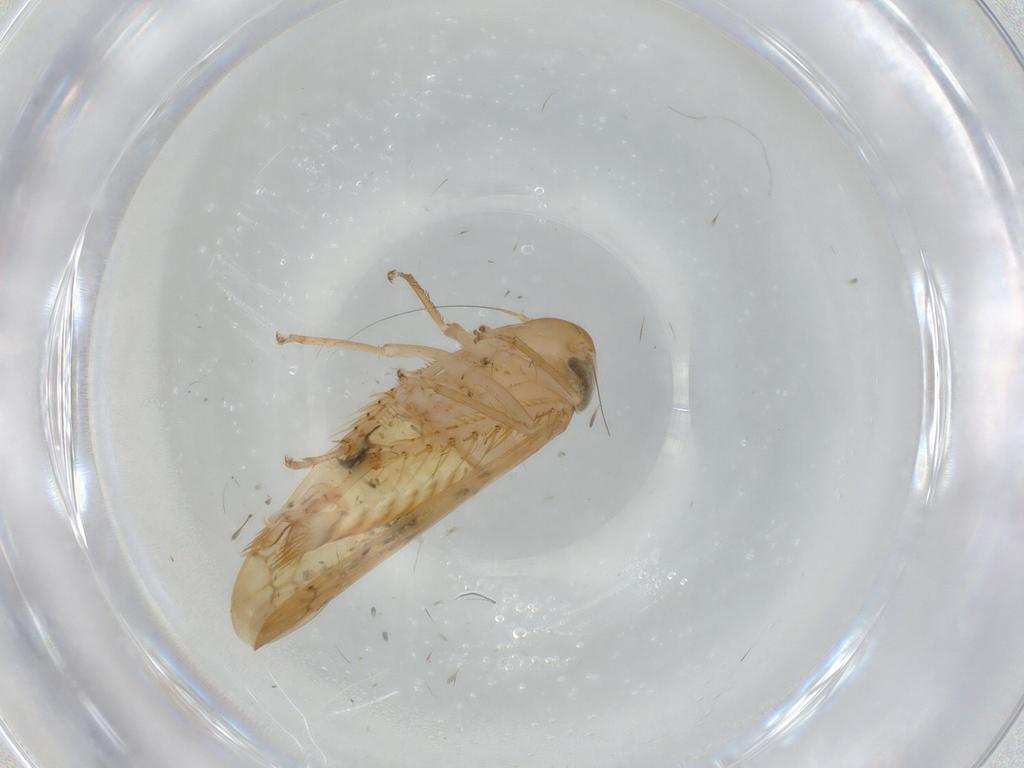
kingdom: Animalia
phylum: Arthropoda
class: Insecta
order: Hemiptera
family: Cicadellidae
